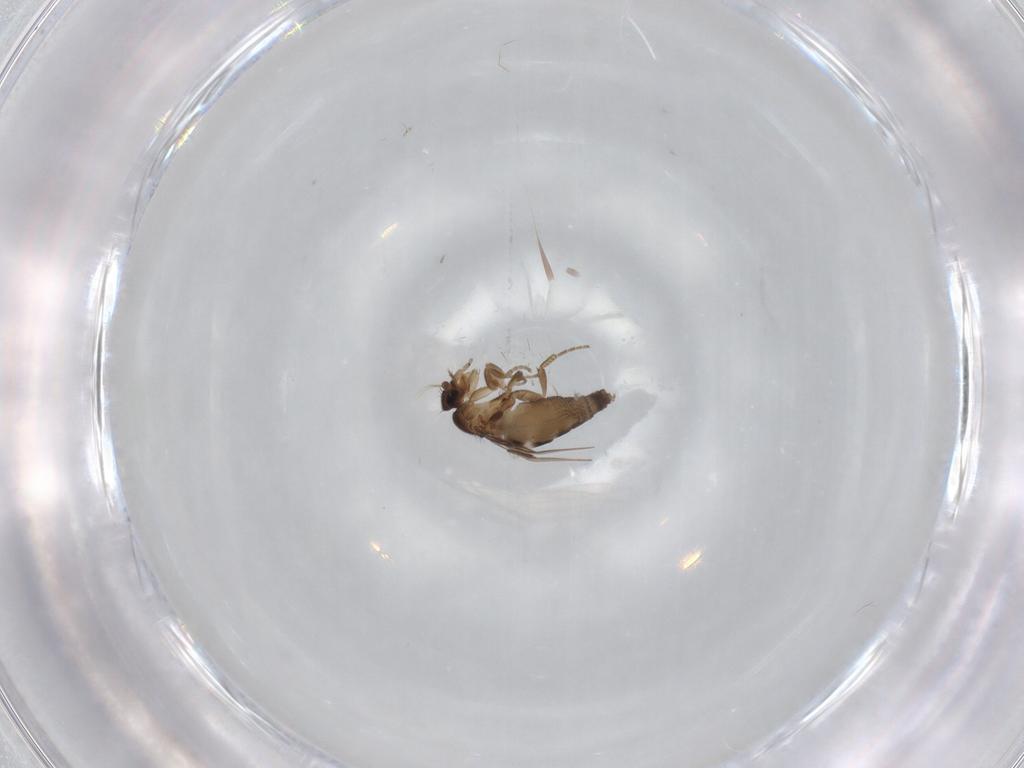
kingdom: Animalia
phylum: Arthropoda
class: Insecta
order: Diptera
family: Phoridae
